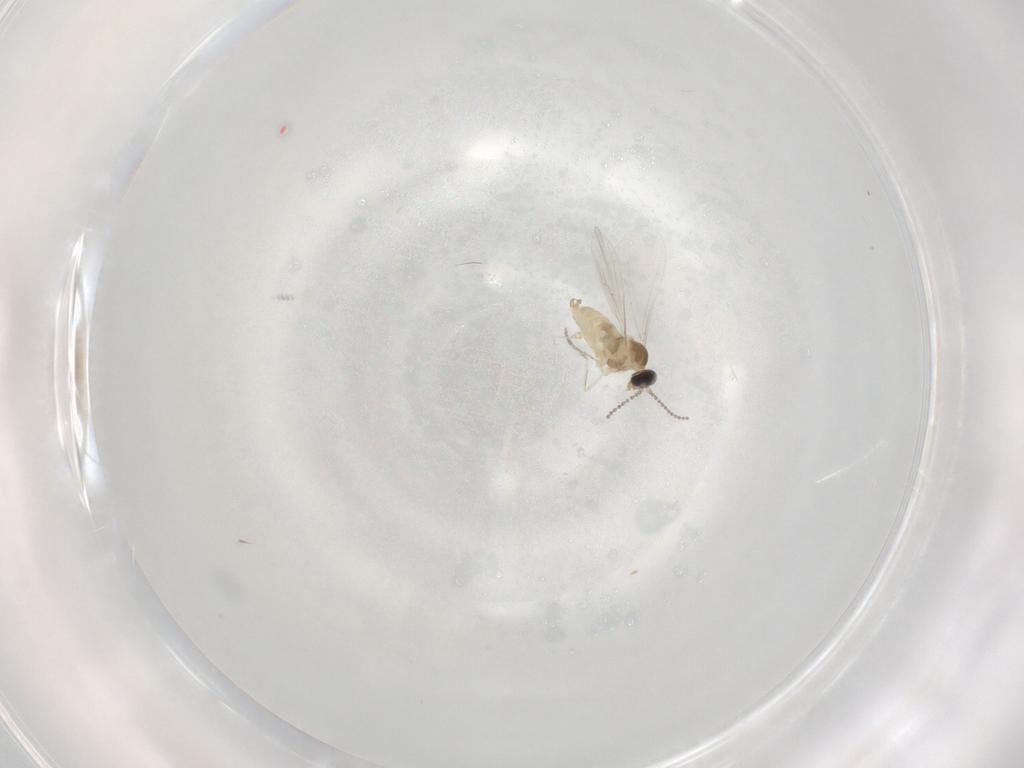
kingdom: Animalia
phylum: Arthropoda
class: Insecta
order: Diptera
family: Cecidomyiidae
